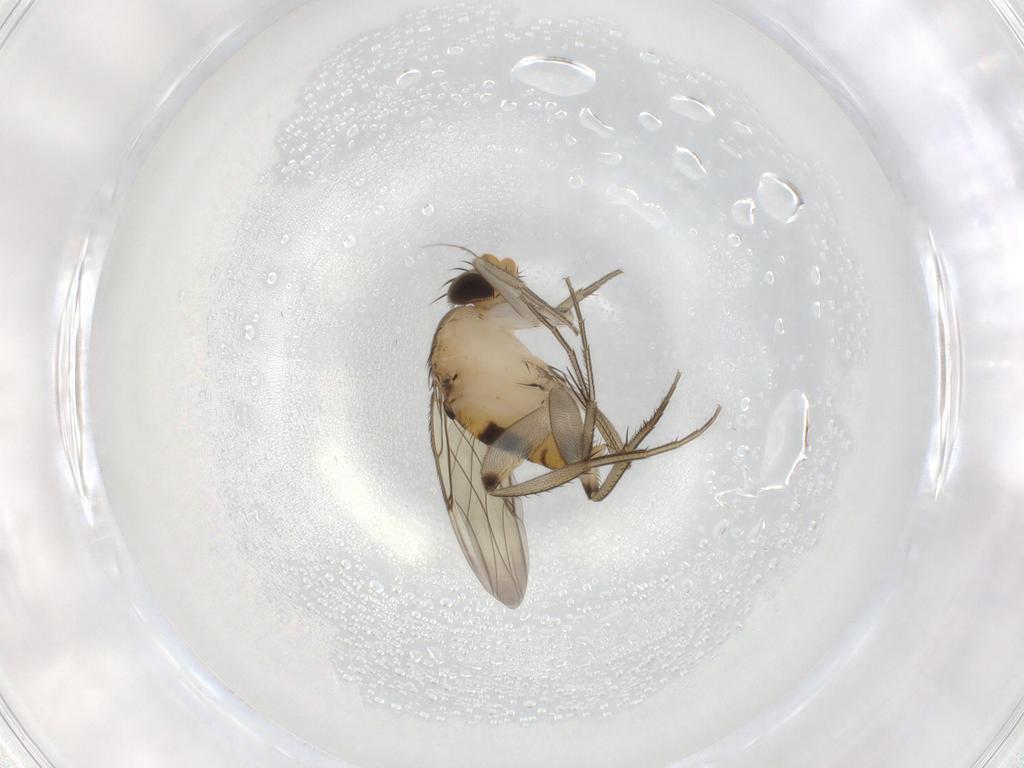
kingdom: Animalia
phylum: Arthropoda
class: Insecta
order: Diptera
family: Phoridae
